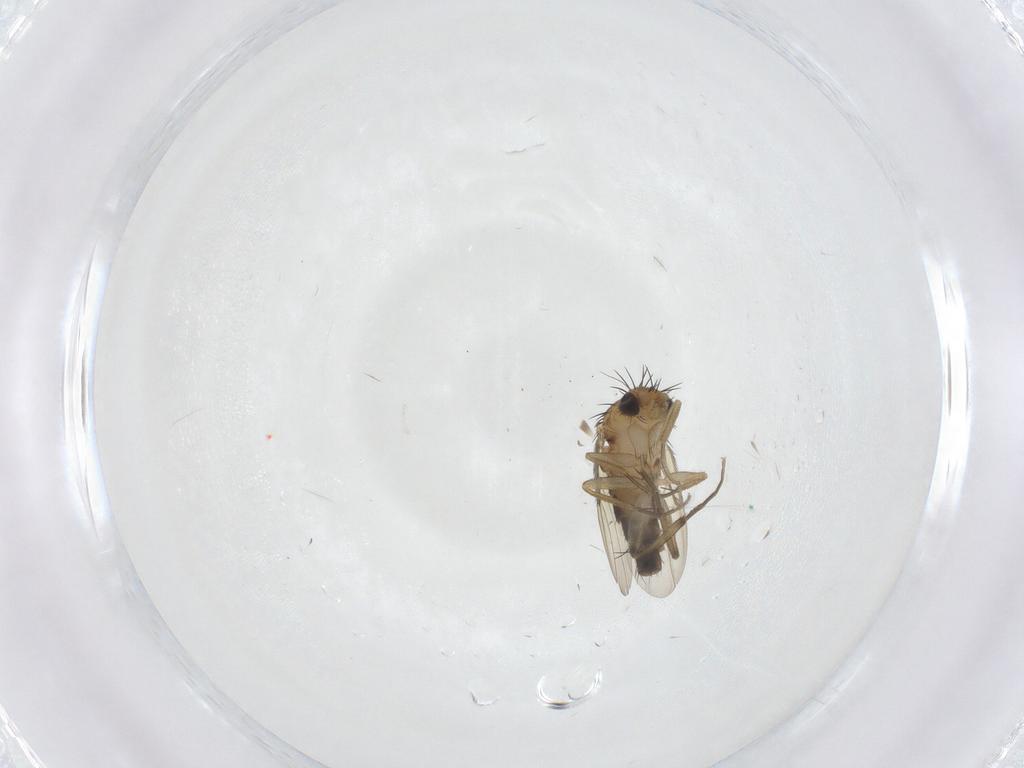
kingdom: Animalia
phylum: Arthropoda
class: Insecta
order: Diptera
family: Phoridae
